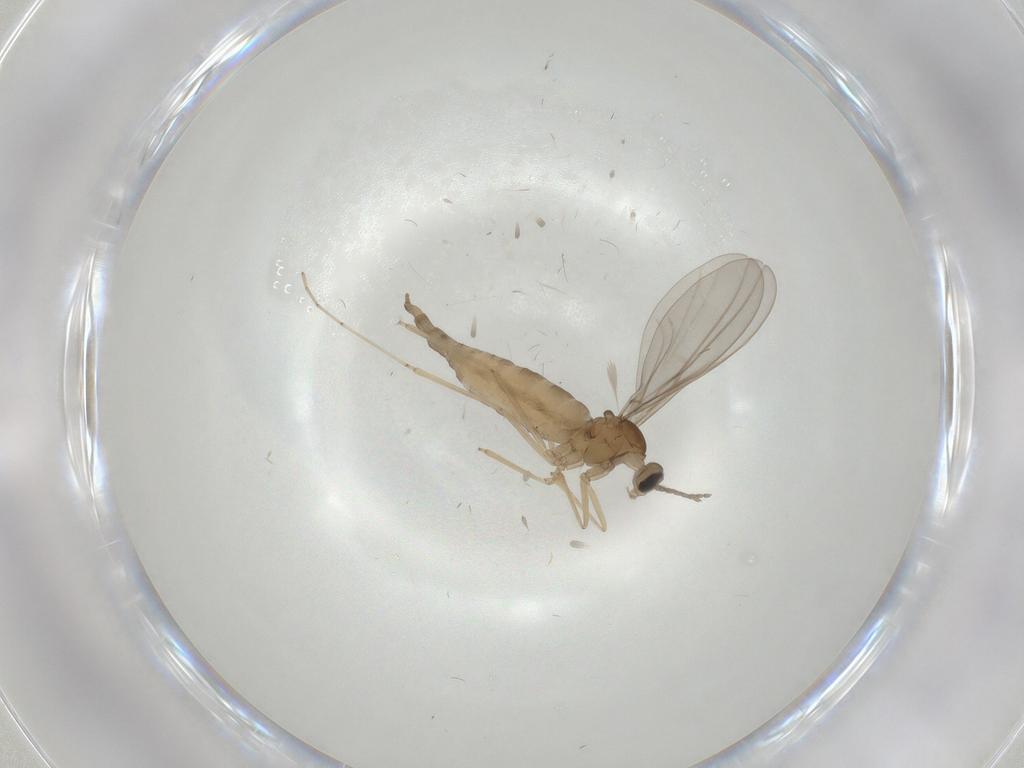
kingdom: Animalia
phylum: Arthropoda
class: Insecta
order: Diptera
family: Cecidomyiidae
